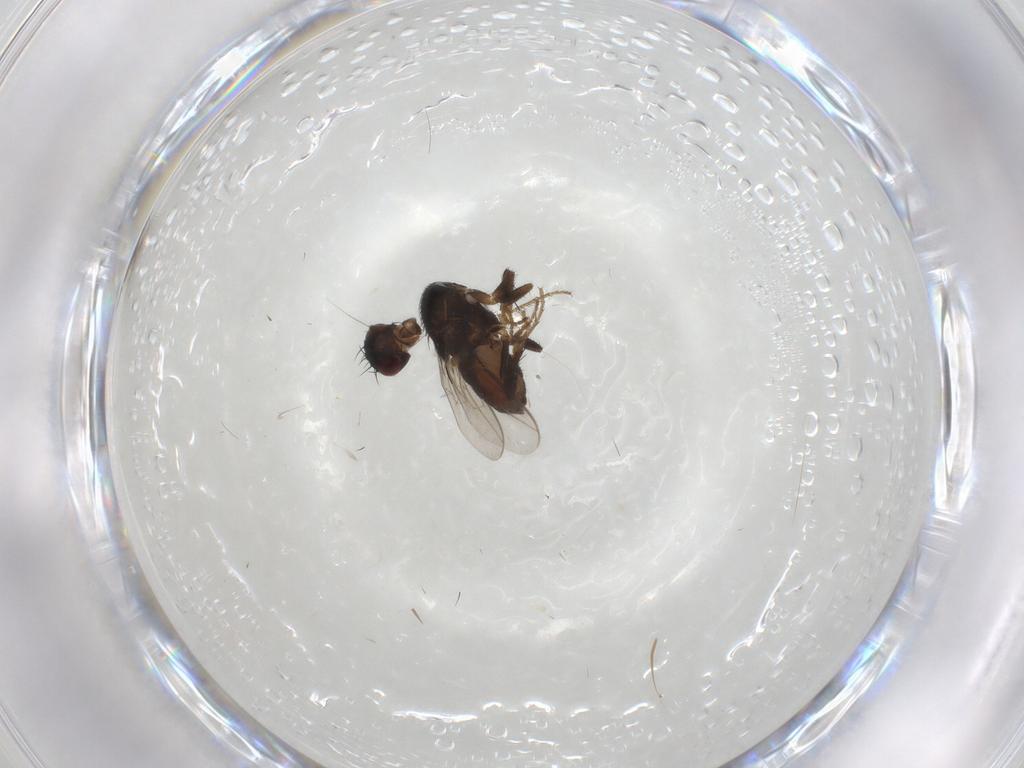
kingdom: Animalia
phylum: Arthropoda
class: Insecta
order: Diptera
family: Sphaeroceridae
